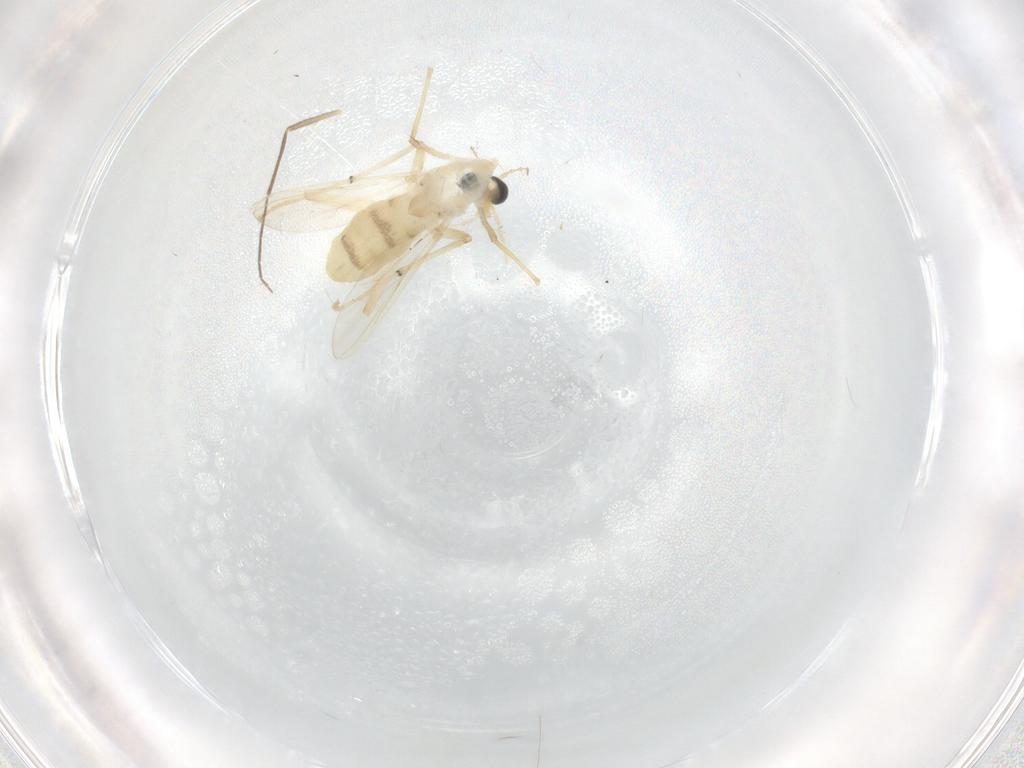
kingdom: Animalia
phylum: Arthropoda
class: Insecta
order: Diptera
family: Chironomidae
